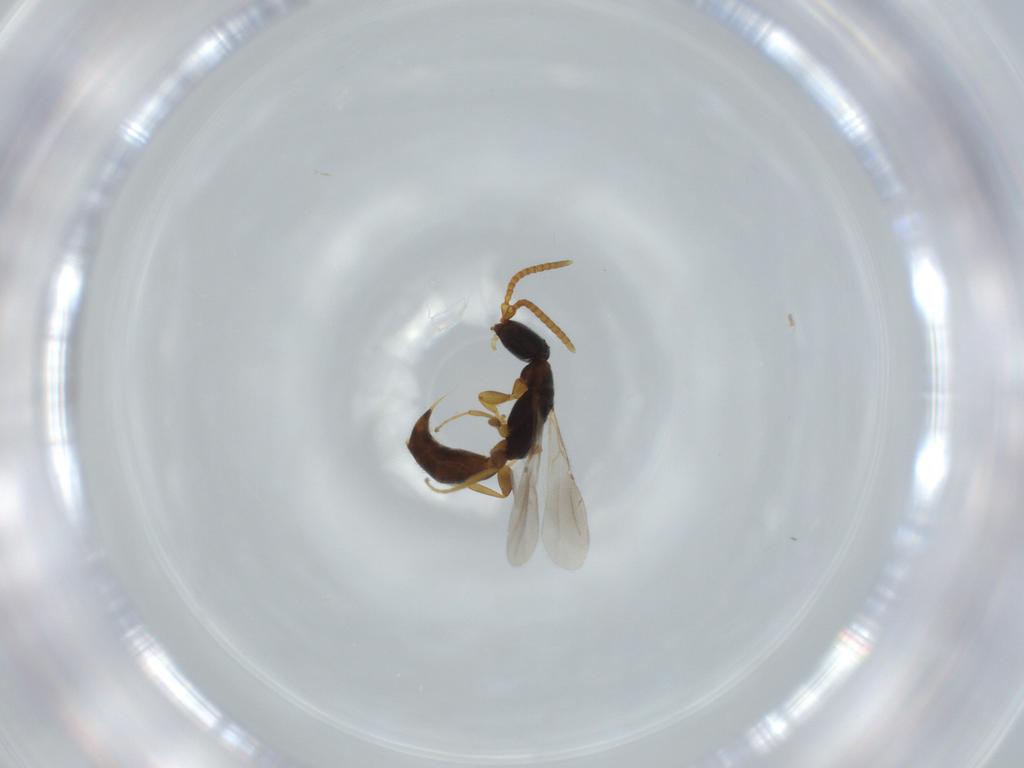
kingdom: Animalia
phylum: Arthropoda
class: Insecta
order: Hymenoptera
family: Bethylidae
